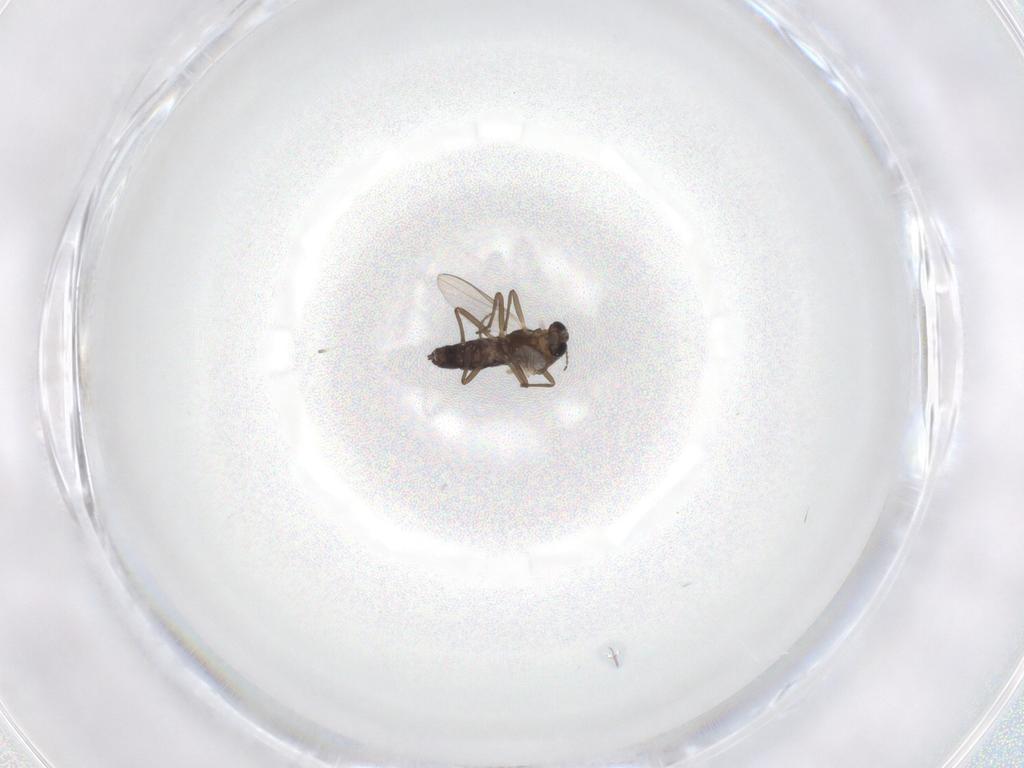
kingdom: Animalia
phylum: Arthropoda
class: Insecta
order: Diptera
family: Chironomidae
